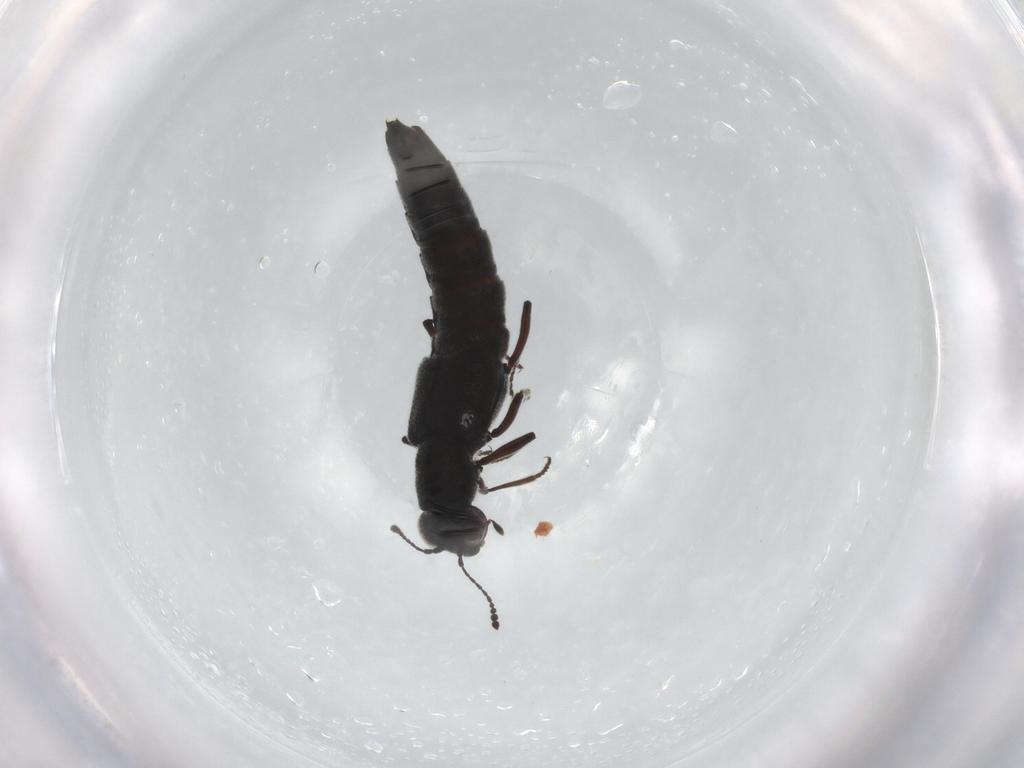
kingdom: Animalia
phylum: Arthropoda
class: Insecta
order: Coleoptera
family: Staphylinidae
